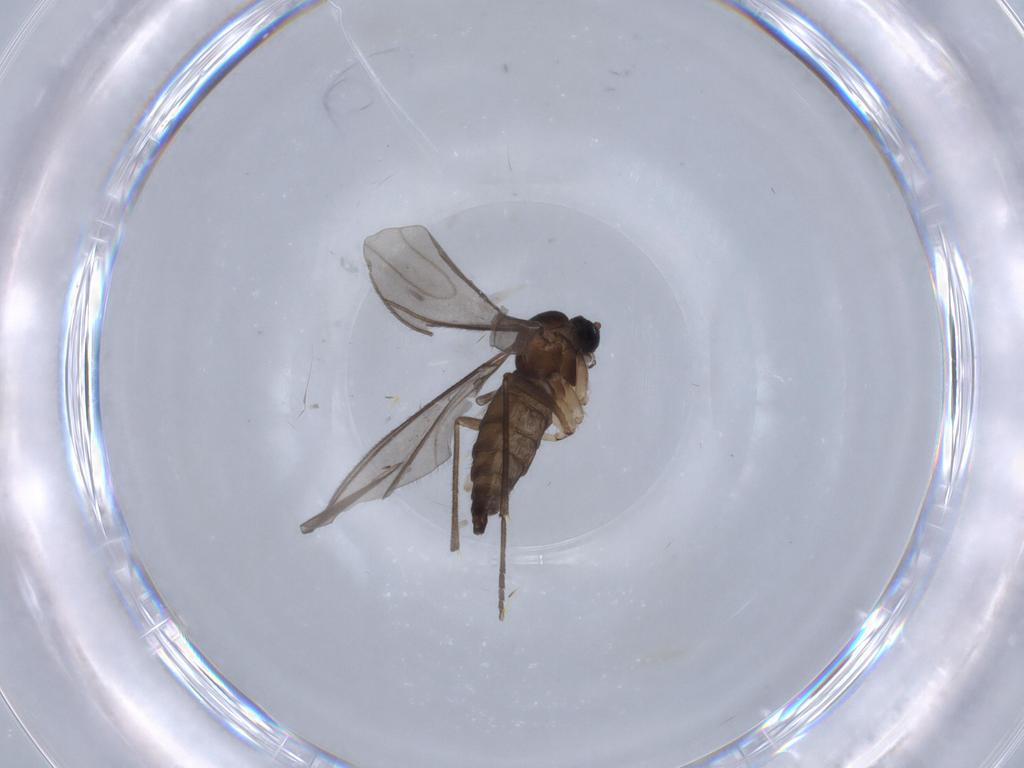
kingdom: Animalia
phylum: Arthropoda
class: Insecta
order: Diptera
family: Sciaridae
